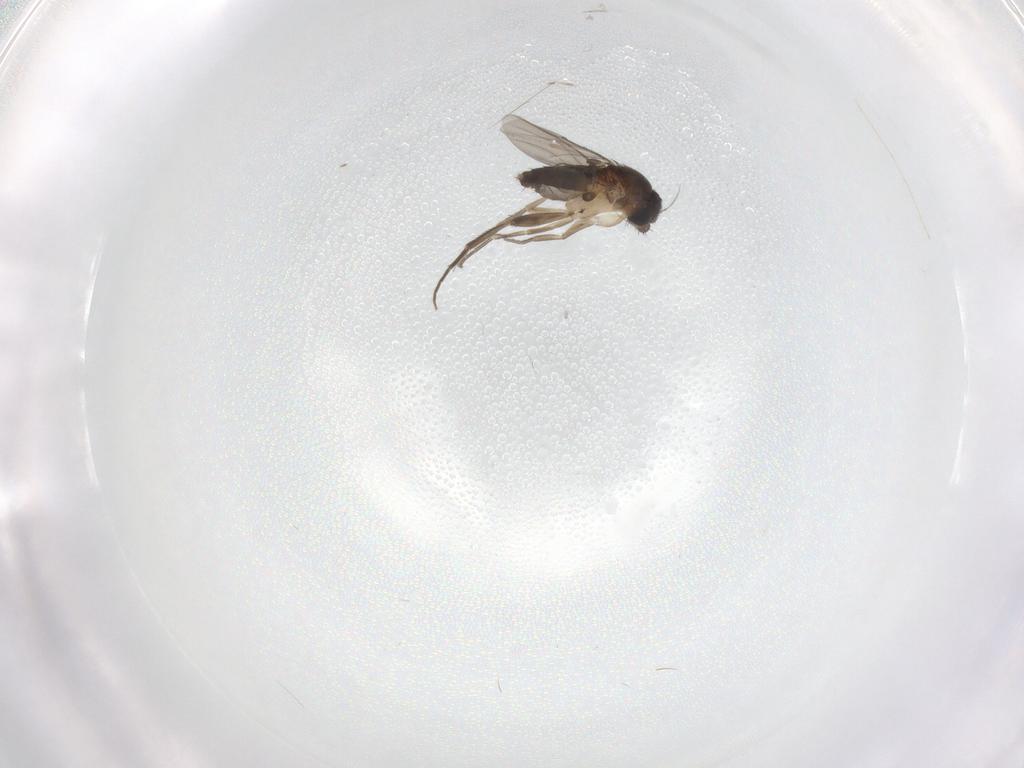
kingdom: Animalia
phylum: Arthropoda
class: Insecta
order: Diptera
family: Phoridae
